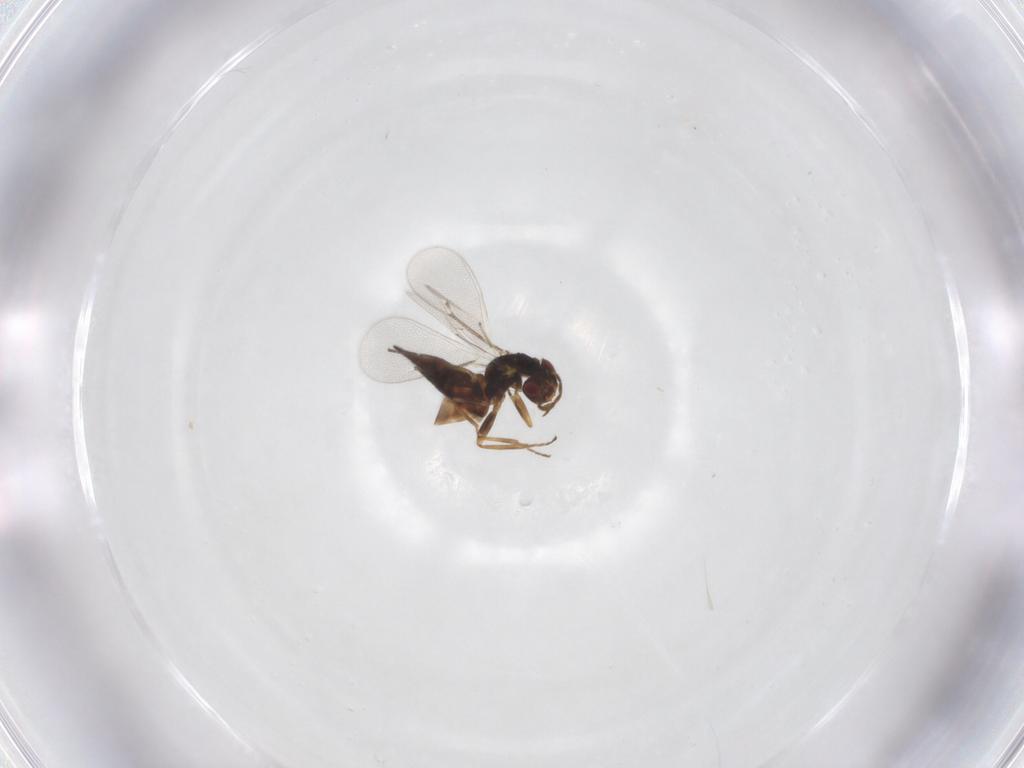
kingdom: Animalia
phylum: Arthropoda
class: Insecta
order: Hymenoptera
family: Eulophidae
